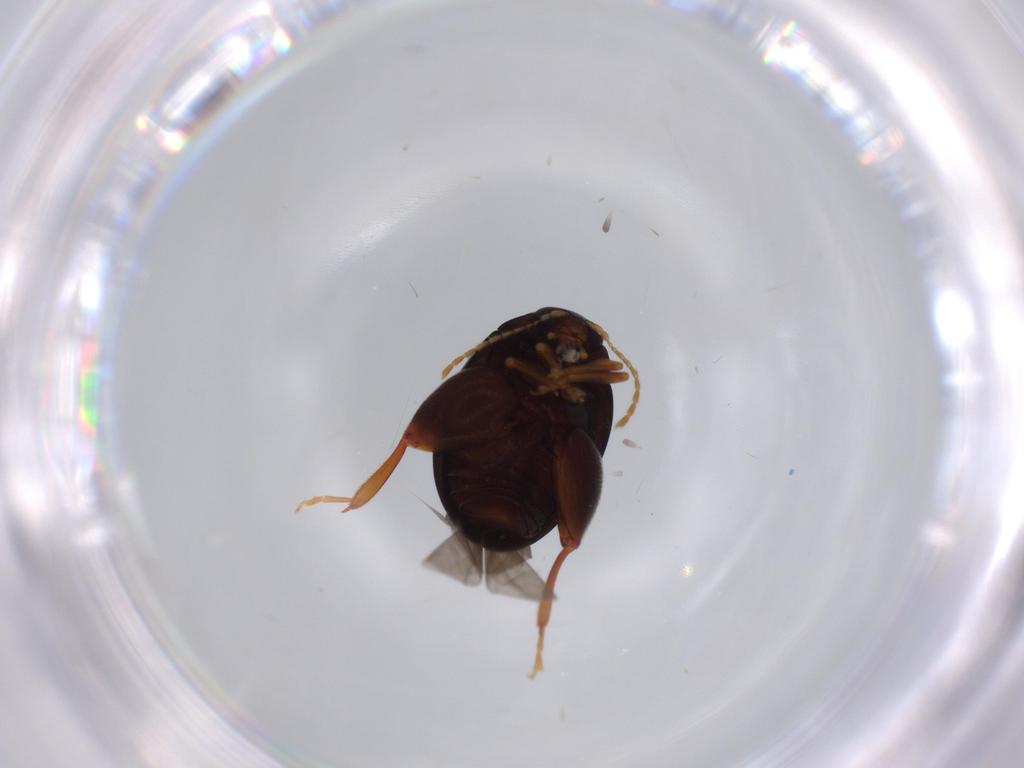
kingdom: Animalia
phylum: Arthropoda
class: Insecta
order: Coleoptera
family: Chrysomelidae
